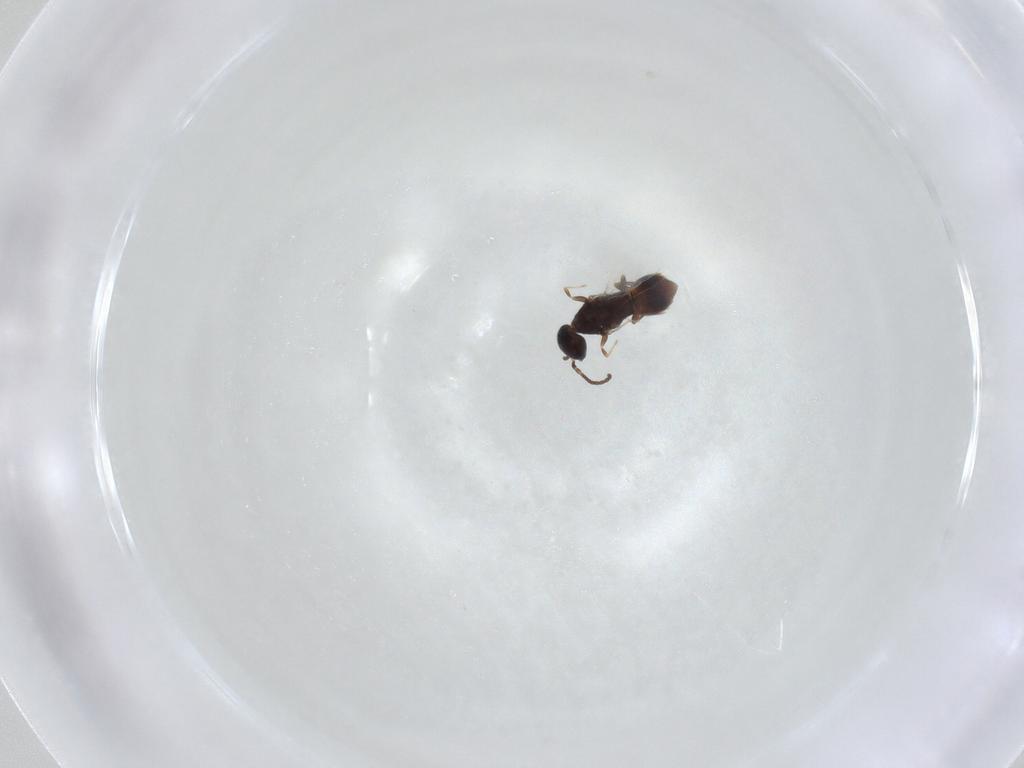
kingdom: Animalia
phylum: Arthropoda
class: Insecta
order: Hymenoptera
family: Bethylidae
